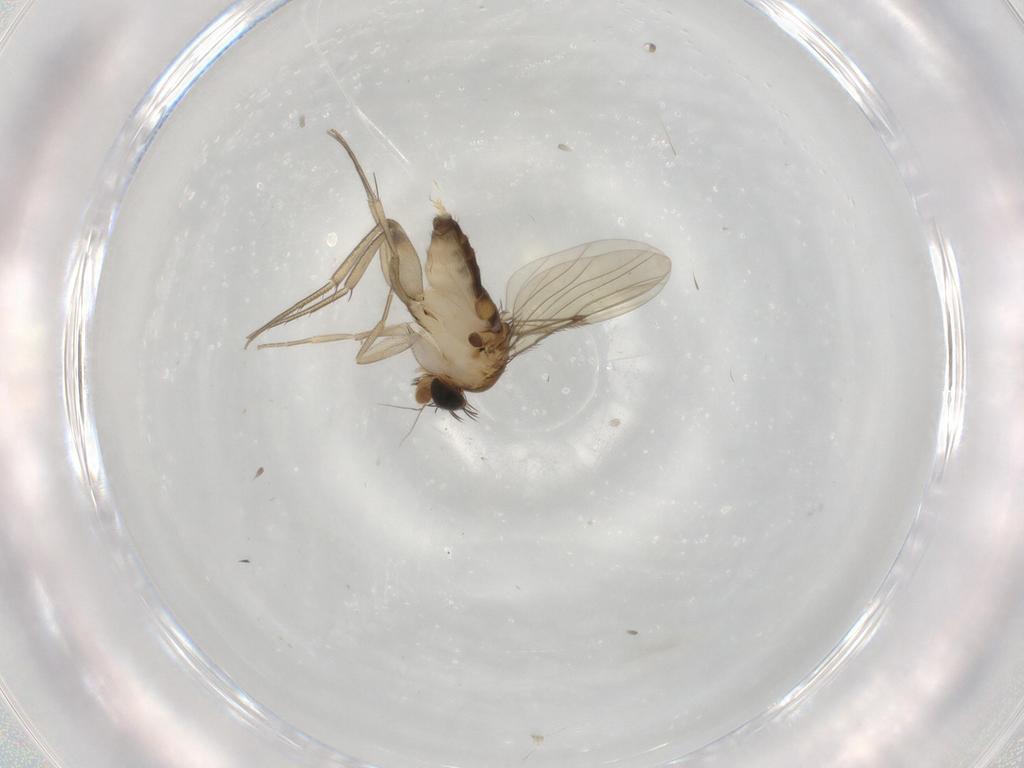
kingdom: Animalia
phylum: Arthropoda
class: Insecta
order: Diptera
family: Phoridae
